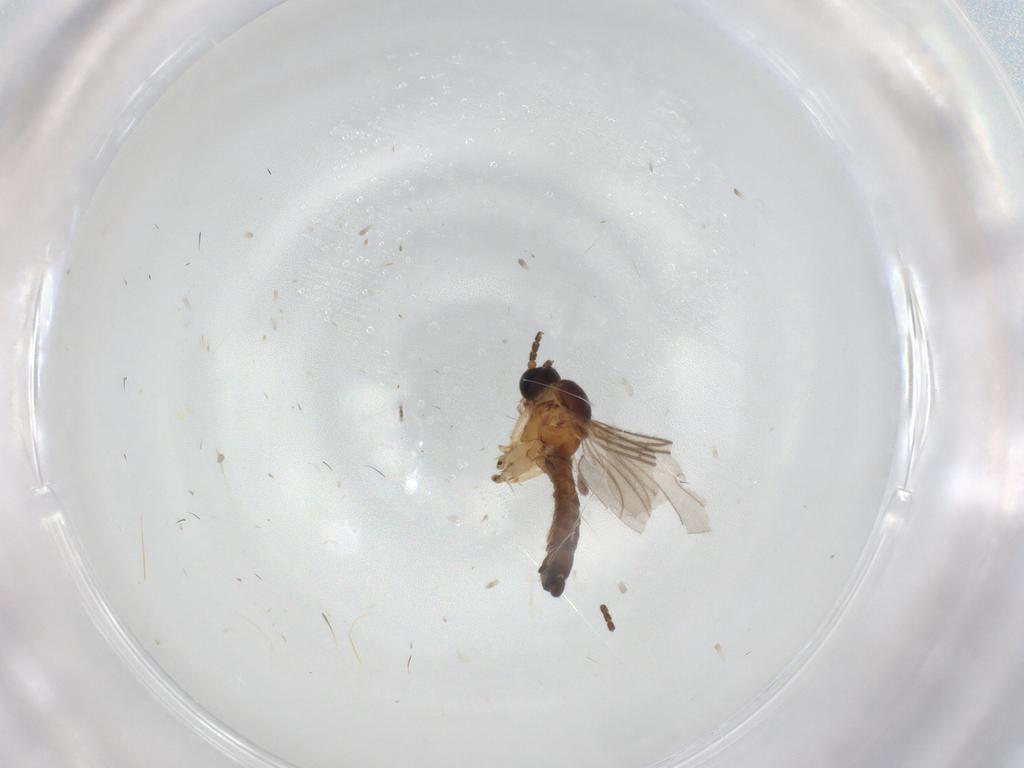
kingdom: Animalia
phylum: Arthropoda
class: Insecta
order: Diptera
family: Sciaridae
